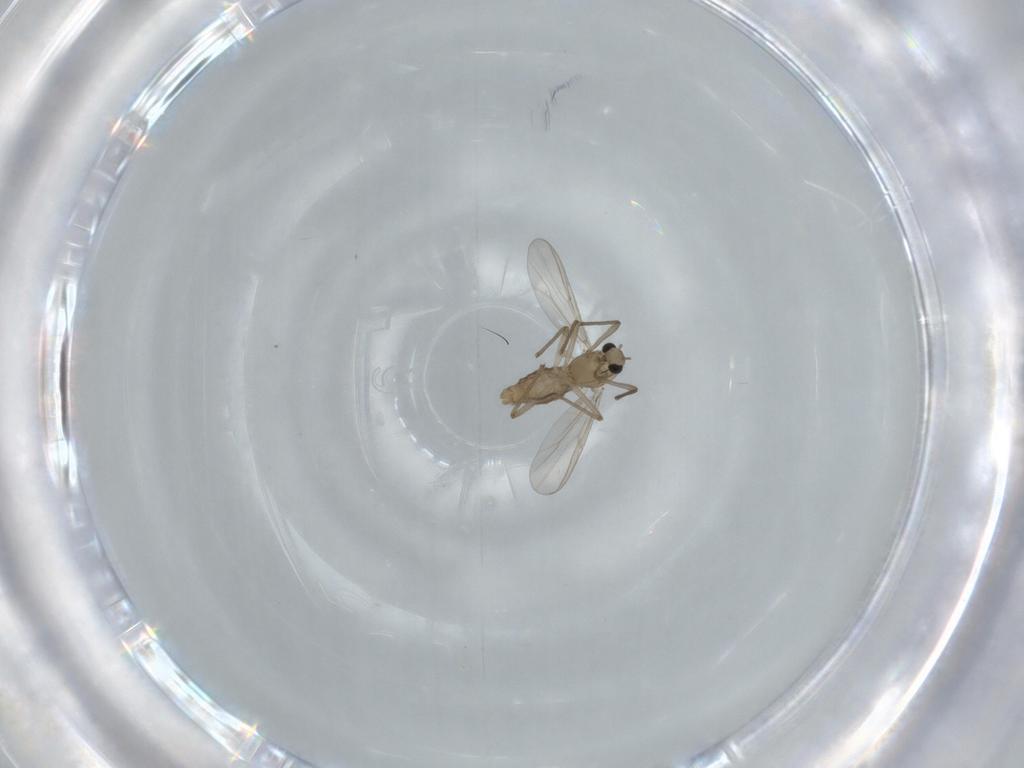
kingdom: Animalia
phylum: Arthropoda
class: Insecta
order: Diptera
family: Chironomidae
